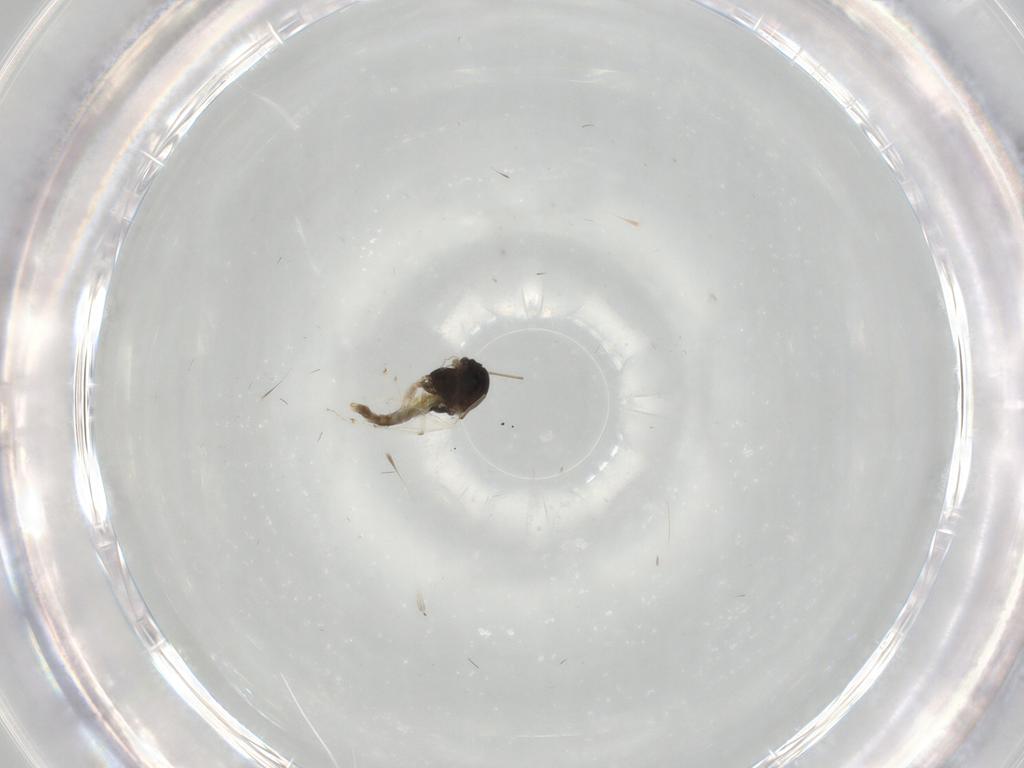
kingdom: Animalia
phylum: Arthropoda
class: Insecta
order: Diptera
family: Chironomidae
